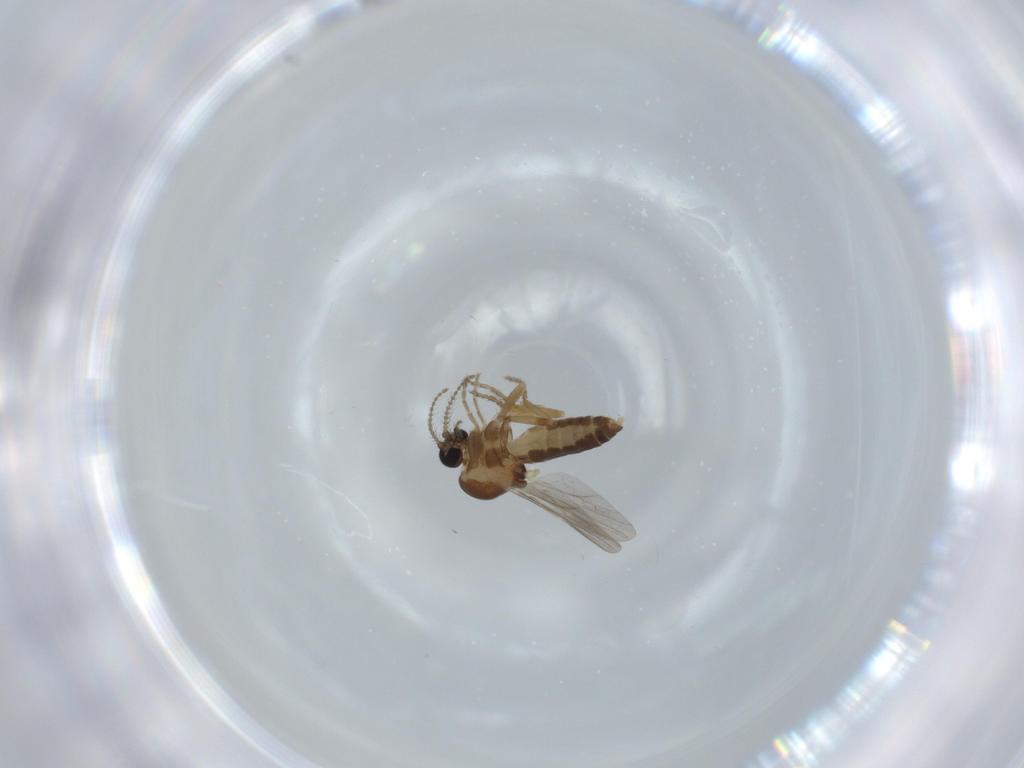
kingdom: Animalia
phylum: Arthropoda
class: Insecta
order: Diptera
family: Ceratopogonidae
